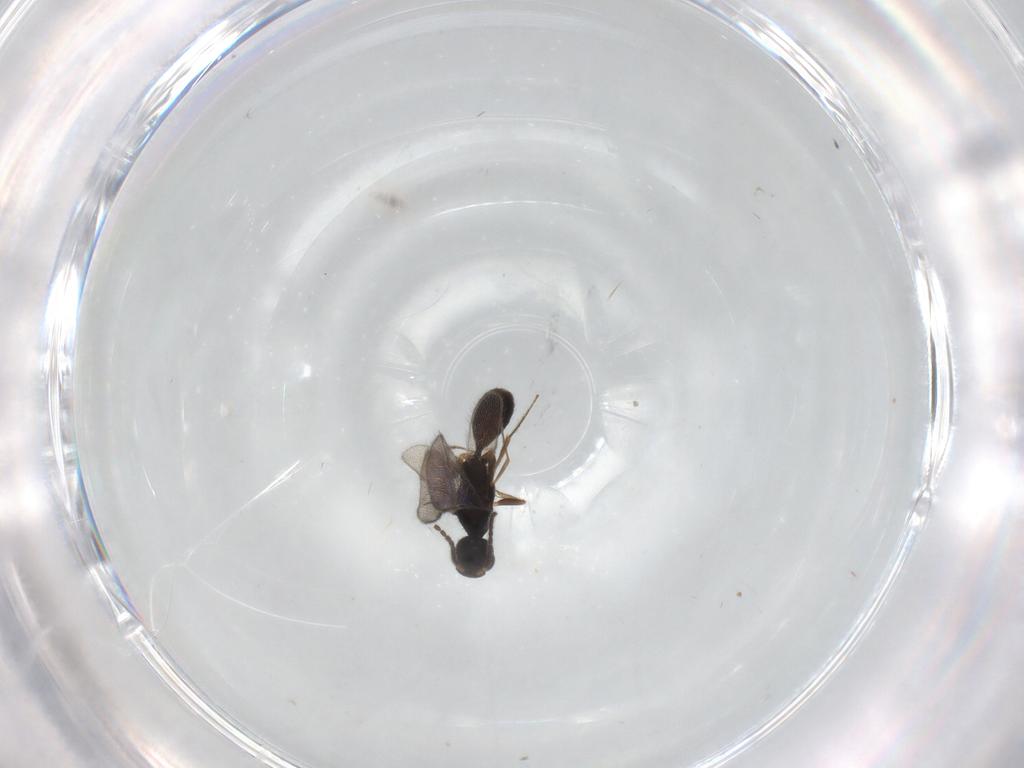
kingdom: Animalia
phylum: Arthropoda
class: Insecta
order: Hymenoptera
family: Bethylidae
